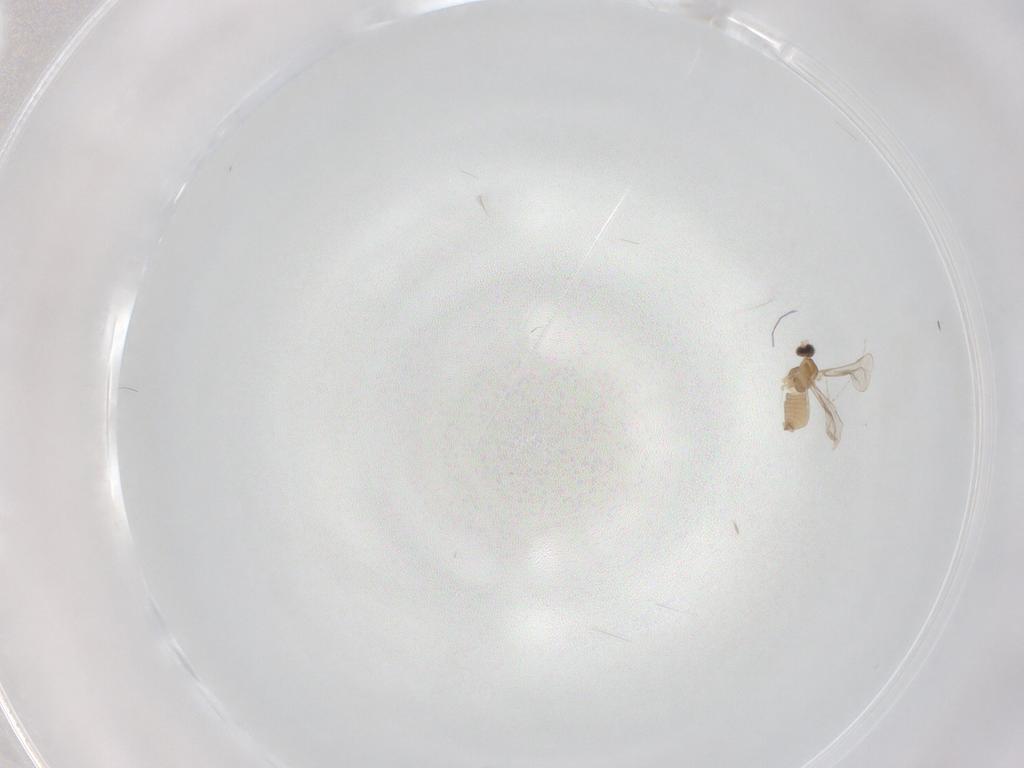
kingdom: Animalia
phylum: Arthropoda
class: Insecta
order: Diptera
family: Cecidomyiidae
